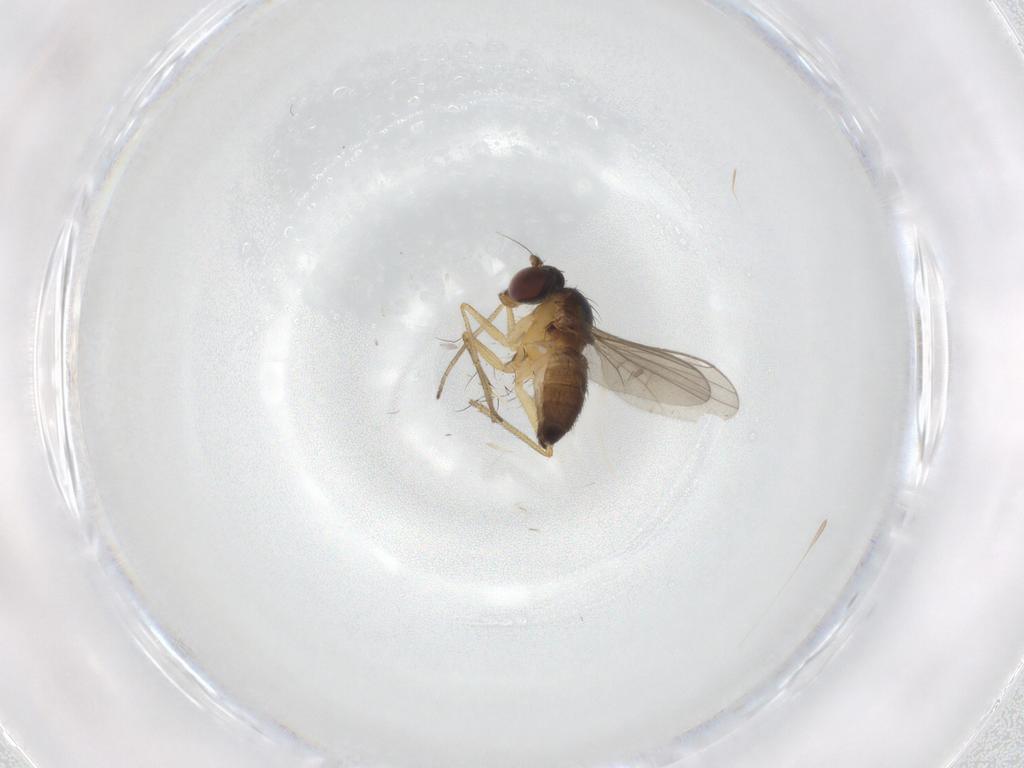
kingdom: Animalia
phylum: Arthropoda
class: Insecta
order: Diptera
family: Dolichopodidae
